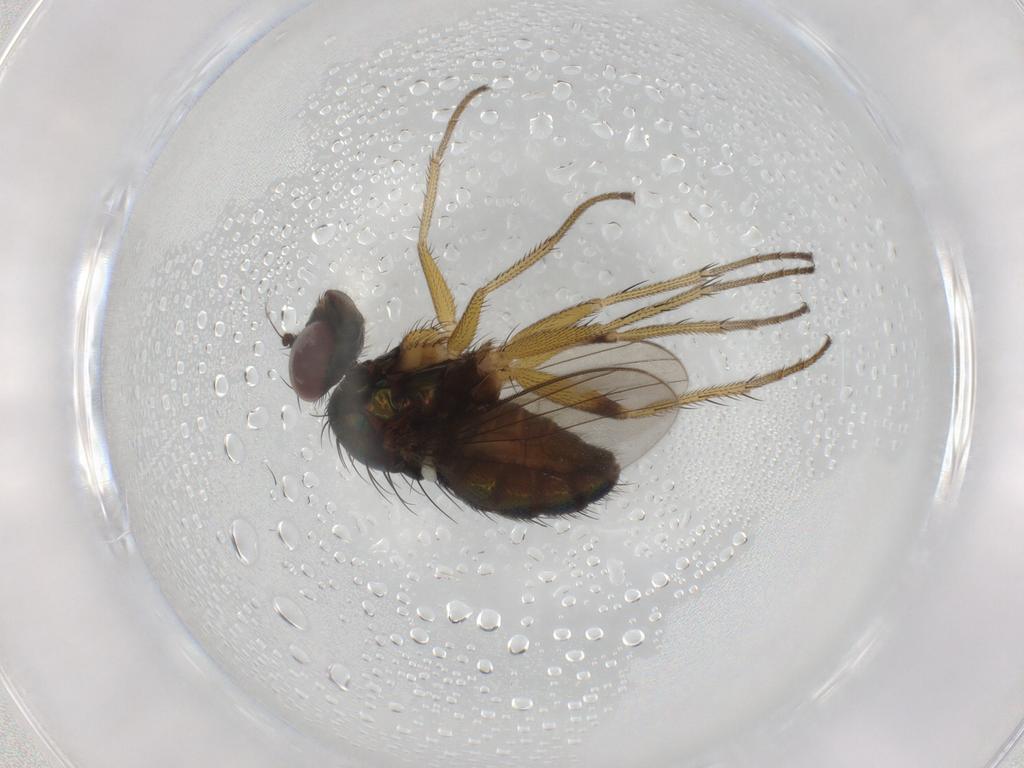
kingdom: Animalia
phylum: Arthropoda
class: Insecta
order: Diptera
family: Dolichopodidae
